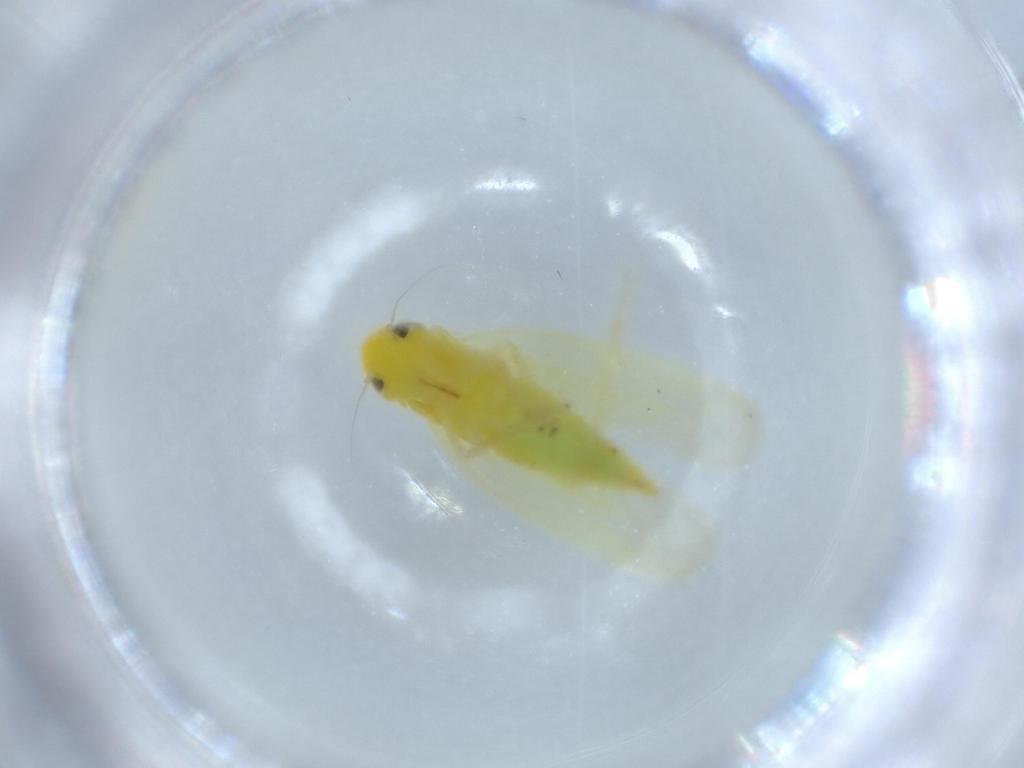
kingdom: Animalia
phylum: Arthropoda
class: Insecta
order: Hemiptera
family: Cicadellidae
